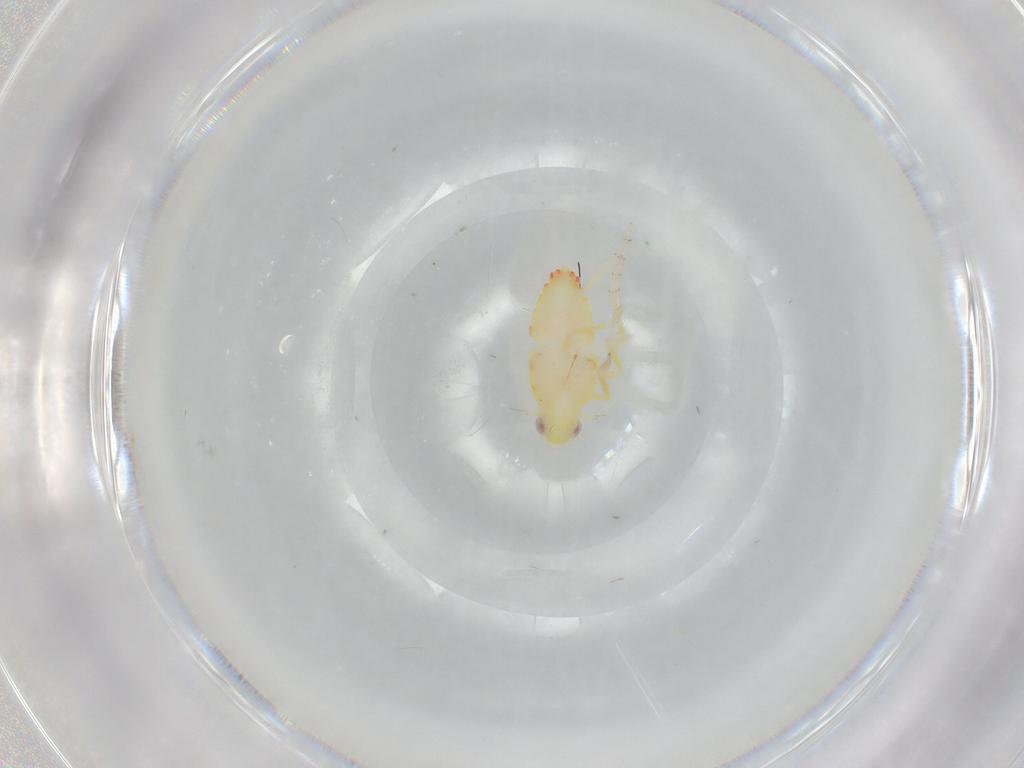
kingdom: Animalia
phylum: Arthropoda
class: Insecta
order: Hemiptera
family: Tropiduchidae
